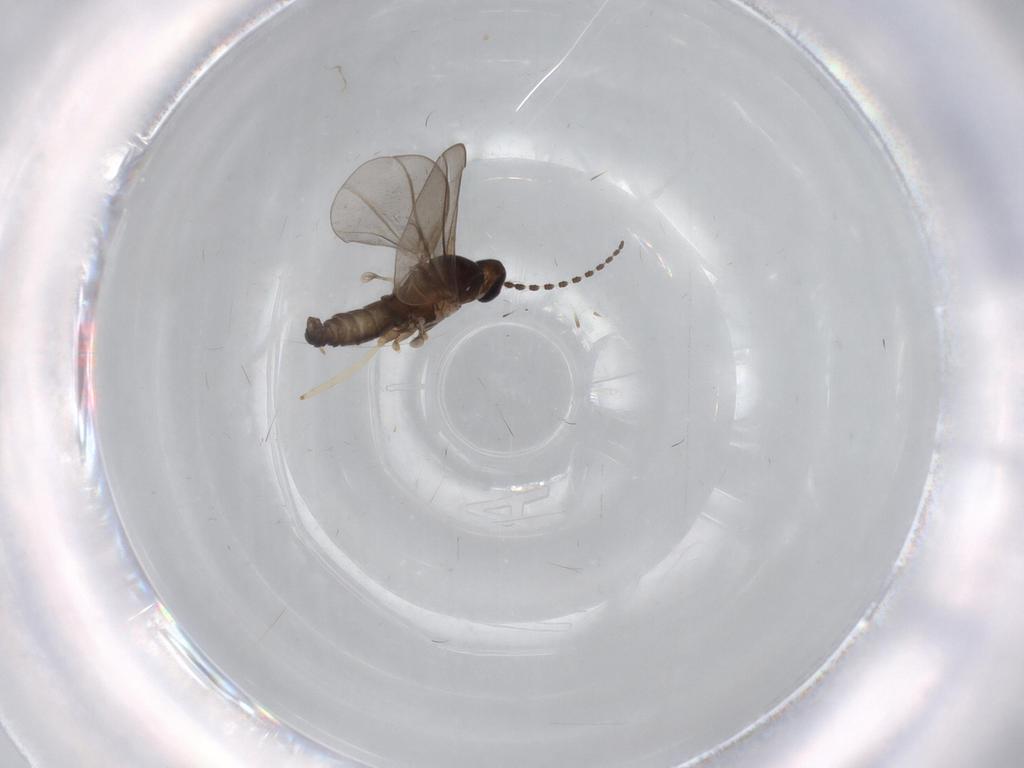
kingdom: Animalia
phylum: Arthropoda
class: Insecta
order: Diptera
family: Cecidomyiidae
